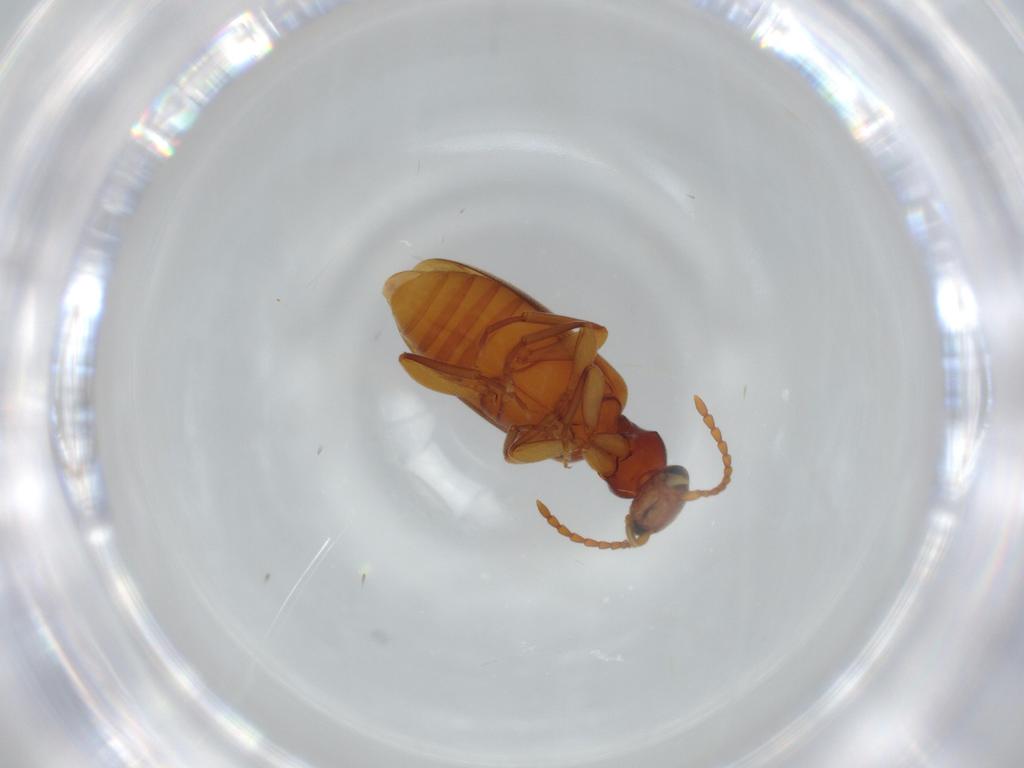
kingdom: Animalia
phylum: Arthropoda
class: Insecta
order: Coleoptera
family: Anthicidae
